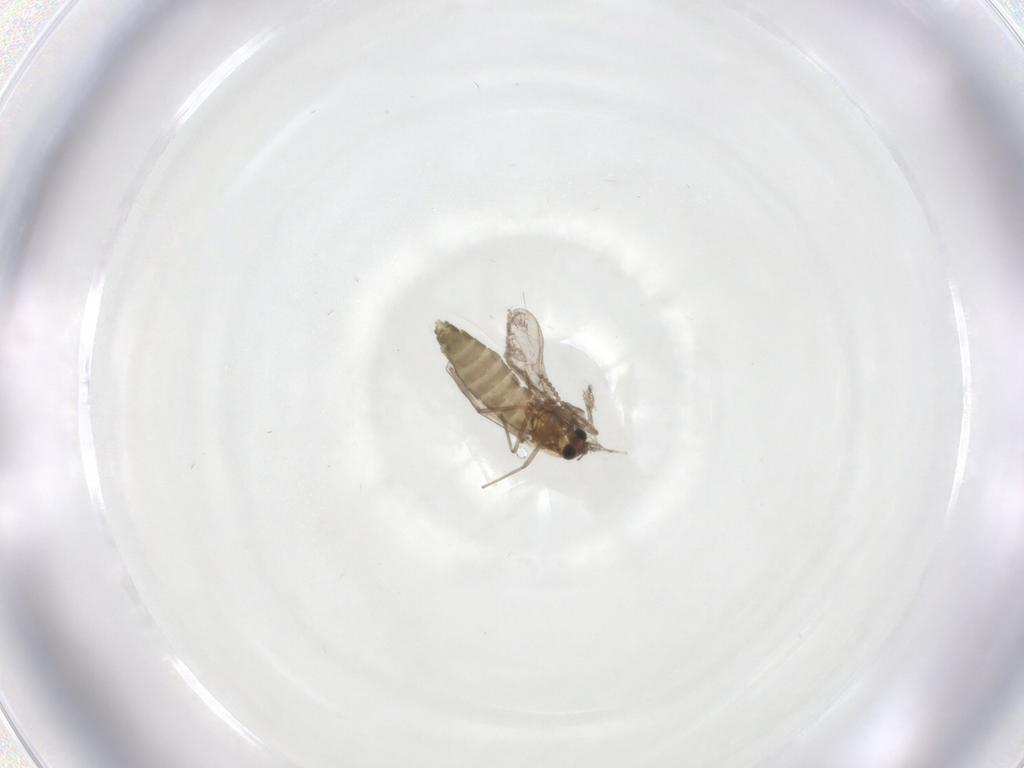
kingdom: Animalia
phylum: Arthropoda
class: Insecta
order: Diptera
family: Chironomidae
